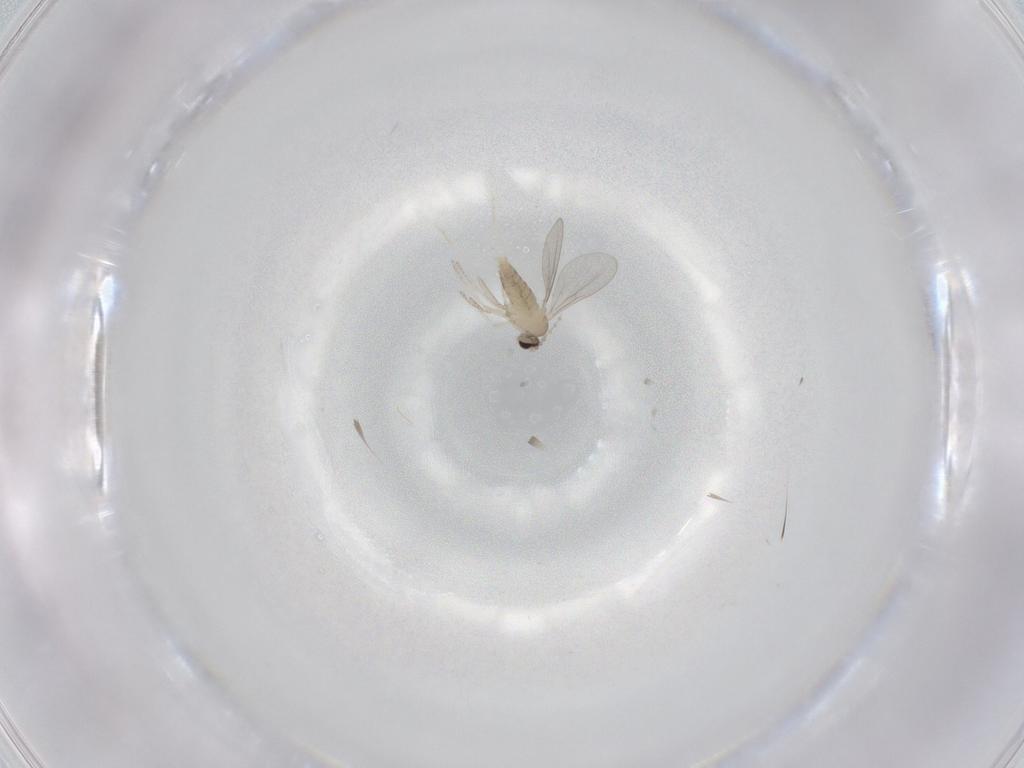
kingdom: Animalia
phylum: Arthropoda
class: Insecta
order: Diptera
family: Cecidomyiidae
